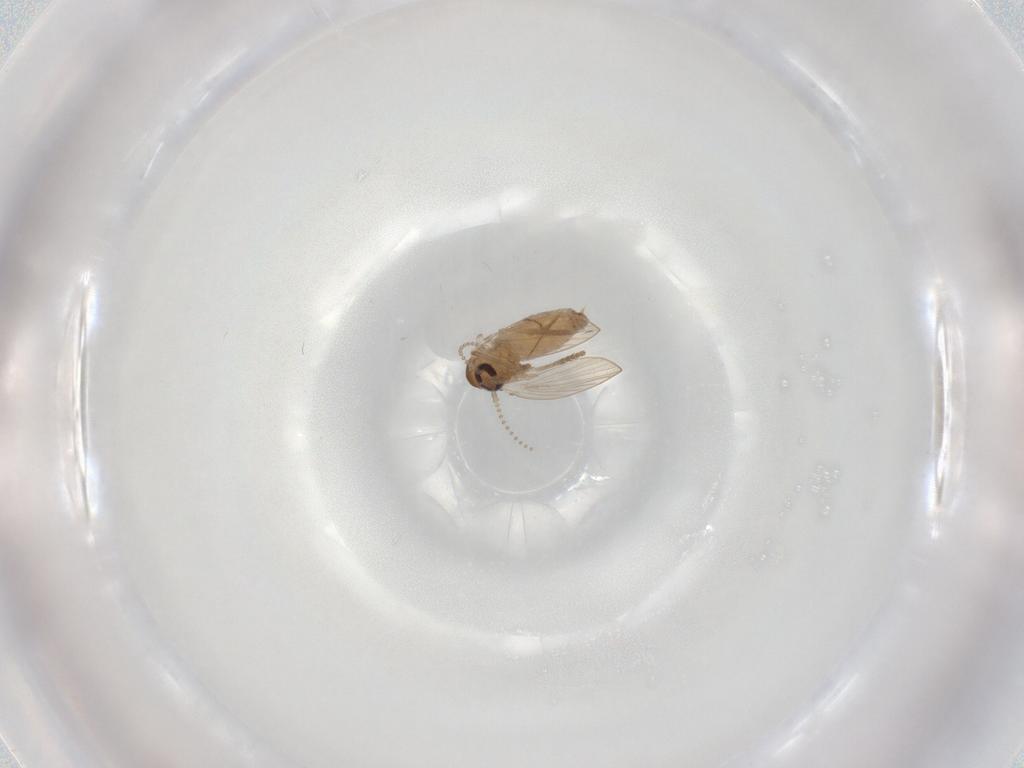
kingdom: Animalia
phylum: Arthropoda
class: Insecta
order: Diptera
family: Psychodidae
